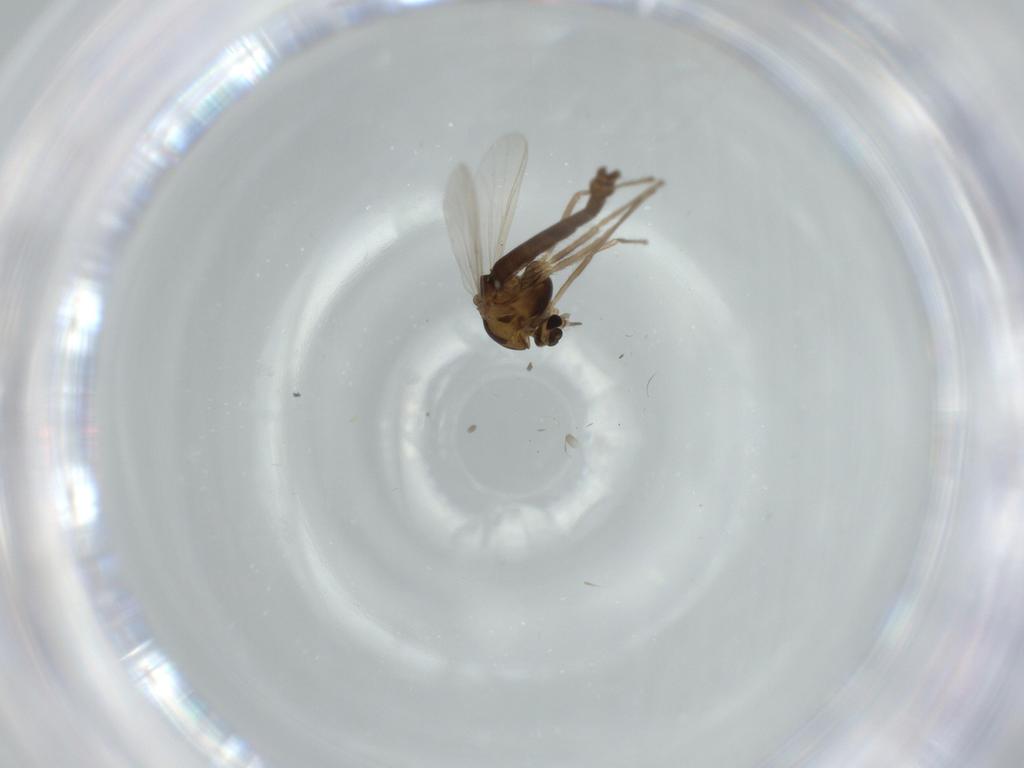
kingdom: Animalia
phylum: Arthropoda
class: Insecta
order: Diptera
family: Chironomidae
